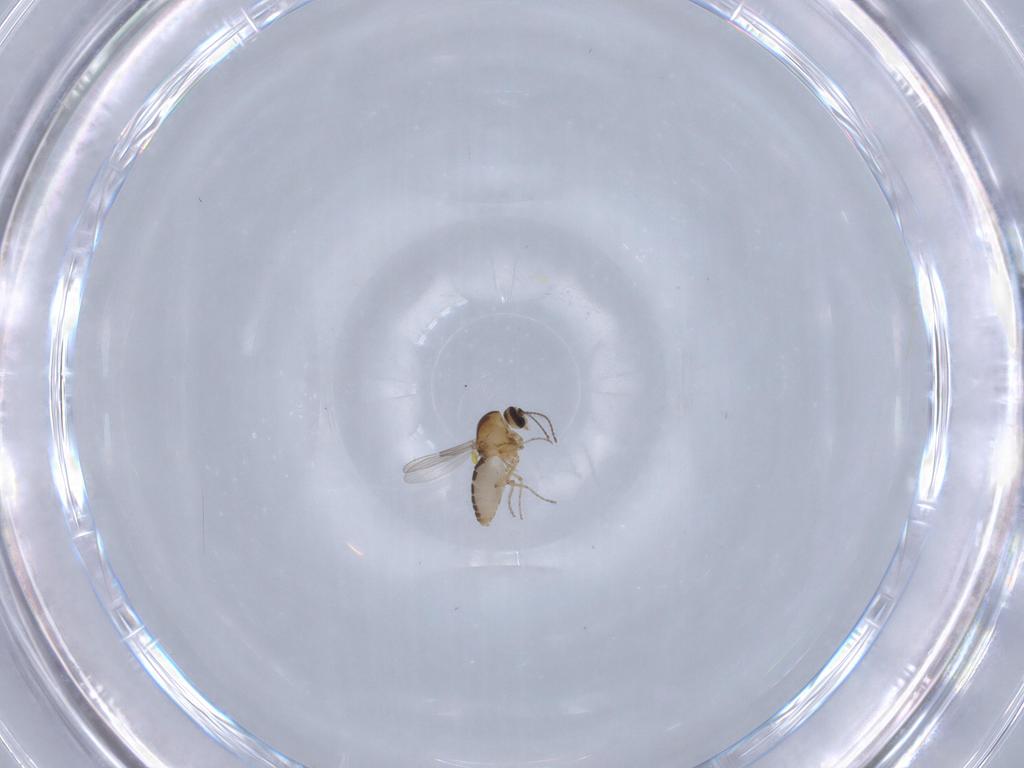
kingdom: Animalia
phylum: Arthropoda
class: Insecta
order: Diptera
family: Ceratopogonidae
